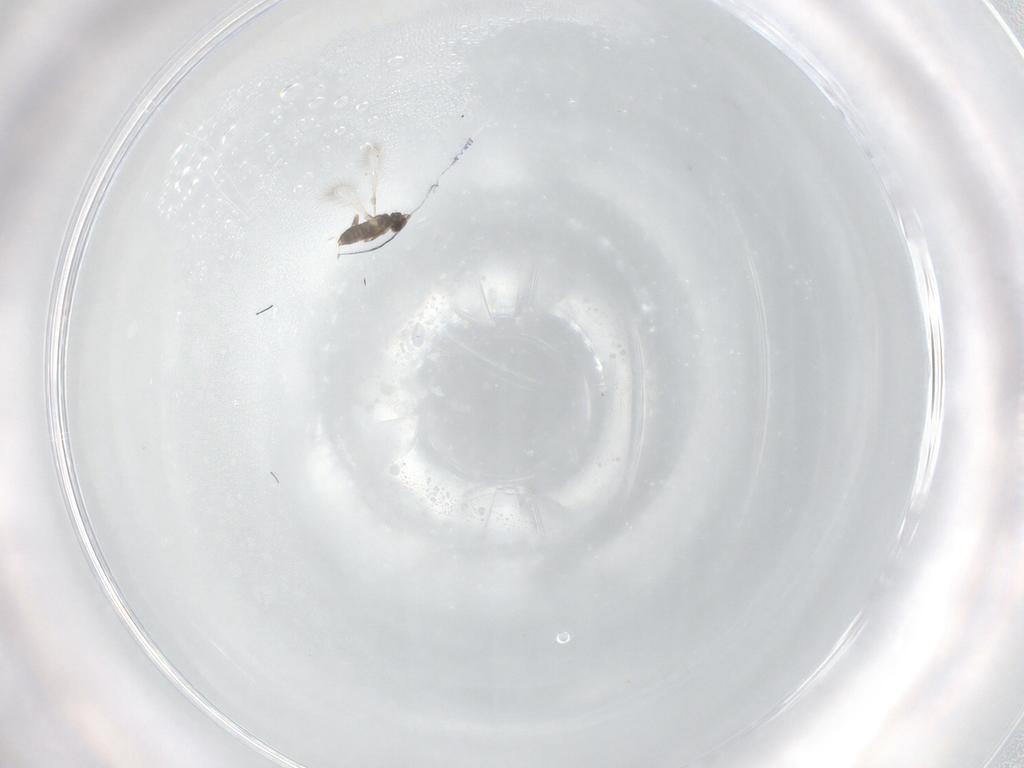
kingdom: Animalia
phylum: Arthropoda
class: Insecta
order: Hymenoptera
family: Mymaridae
